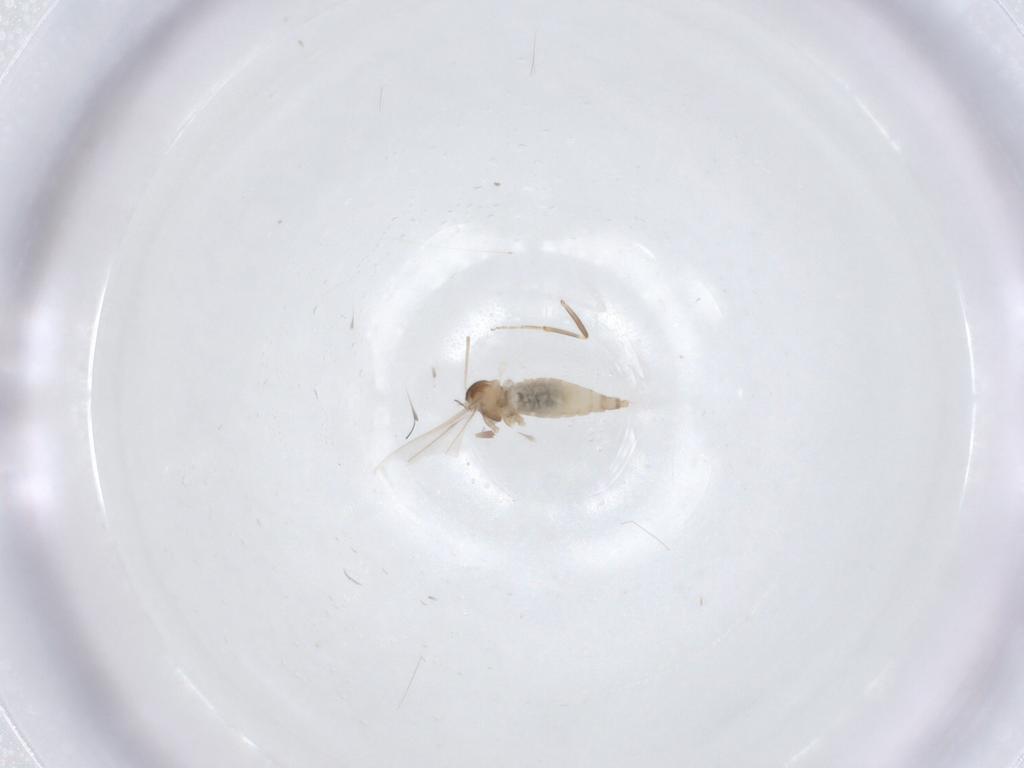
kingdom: Animalia
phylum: Arthropoda
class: Insecta
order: Diptera
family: Cecidomyiidae
